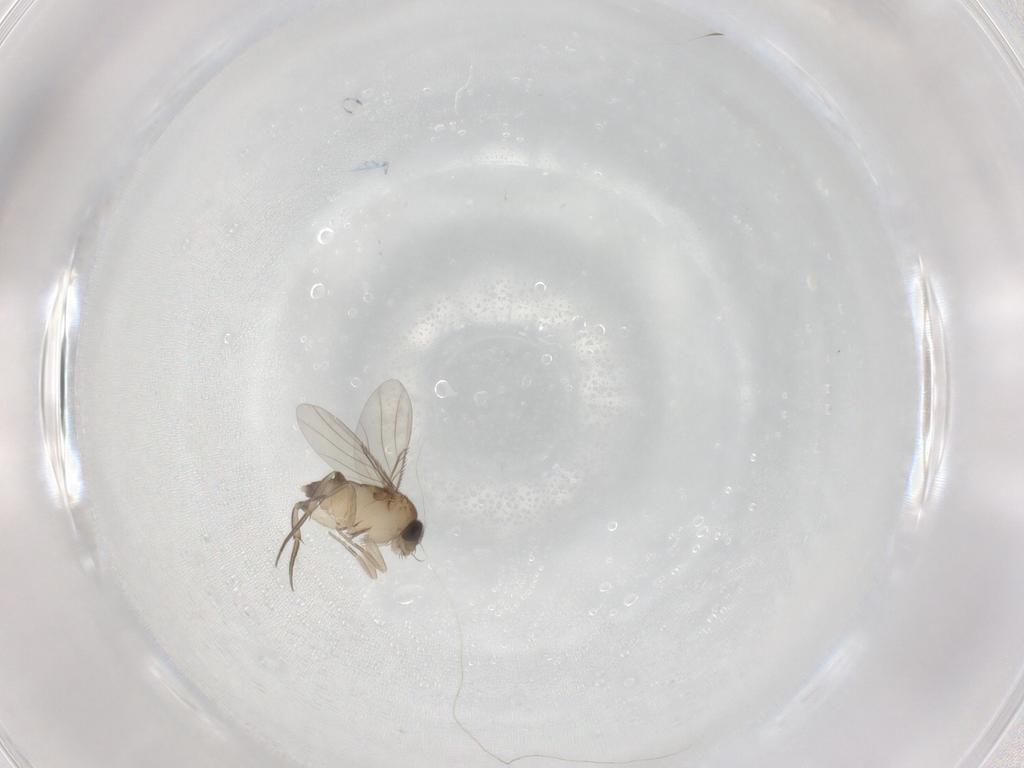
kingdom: Animalia
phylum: Arthropoda
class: Insecta
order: Diptera
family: Phoridae
